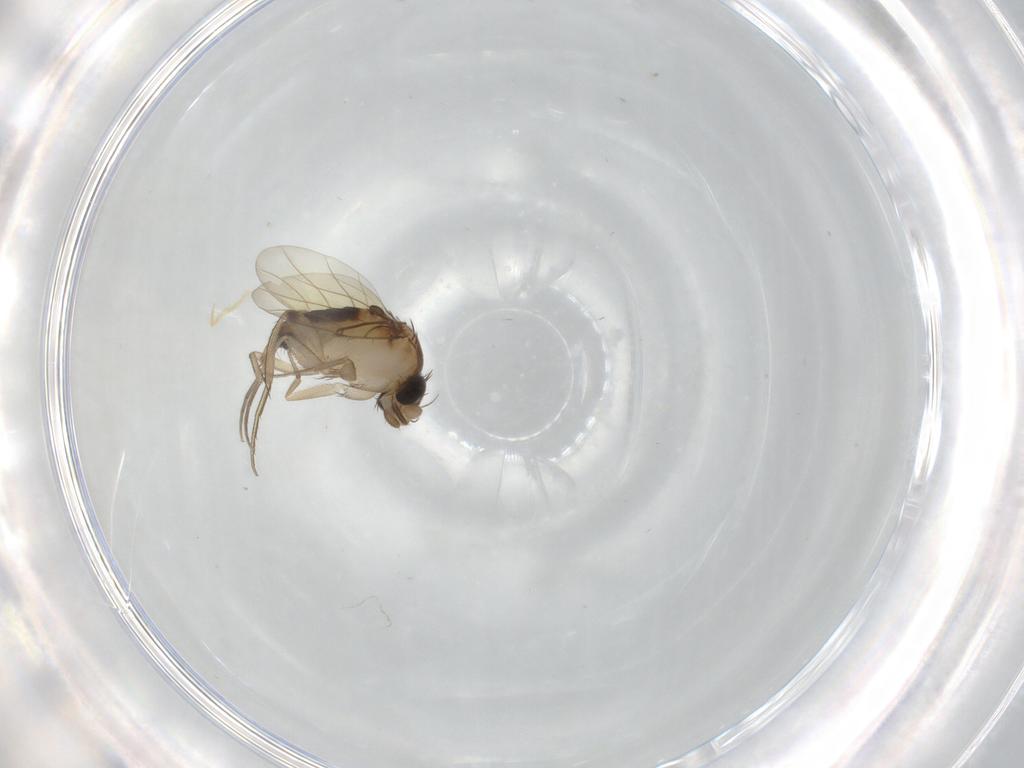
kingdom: Animalia
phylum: Arthropoda
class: Insecta
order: Diptera
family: Phoridae
